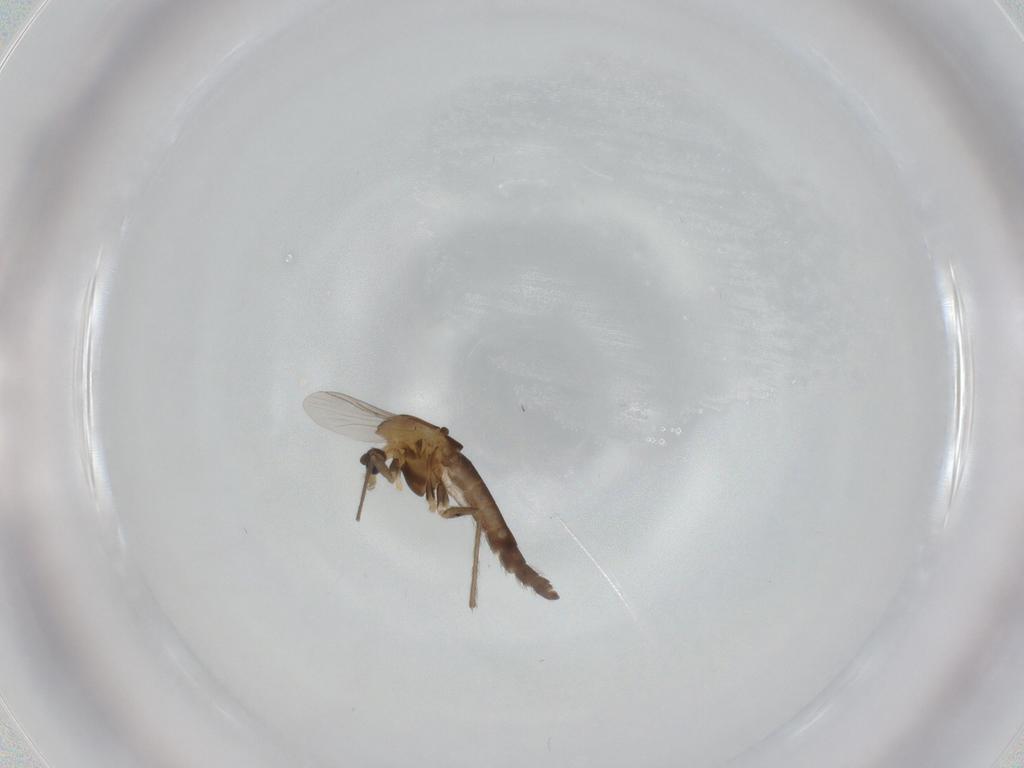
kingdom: Animalia
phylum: Arthropoda
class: Insecta
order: Diptera
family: Chironomidae
